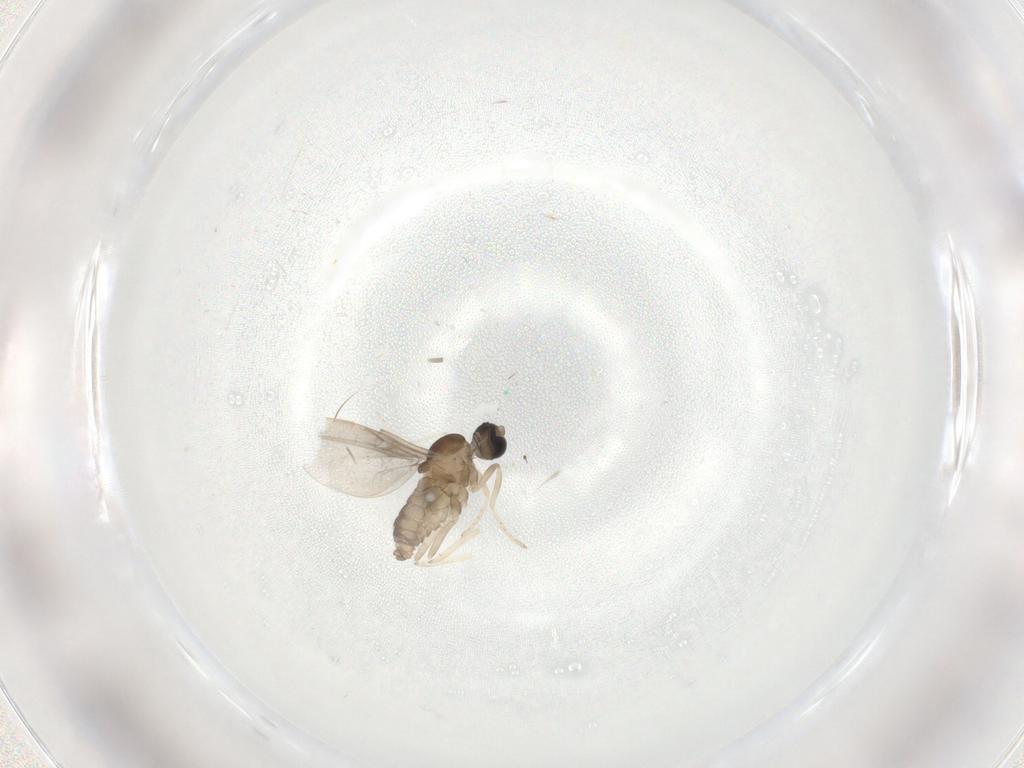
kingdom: Animalia
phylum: Arthropoda
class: Insecta
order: Diptera
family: Cecidomyiidae
